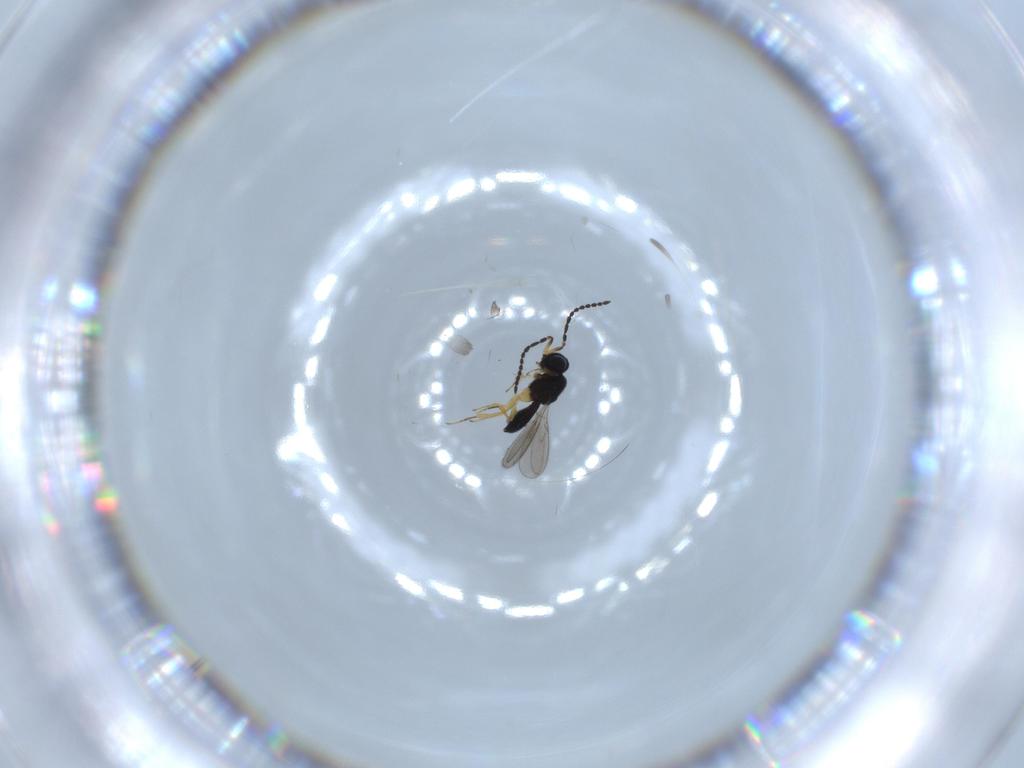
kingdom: Animalia
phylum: Arthropoda
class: Insecta
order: Hymenoptera
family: Scelionidae
